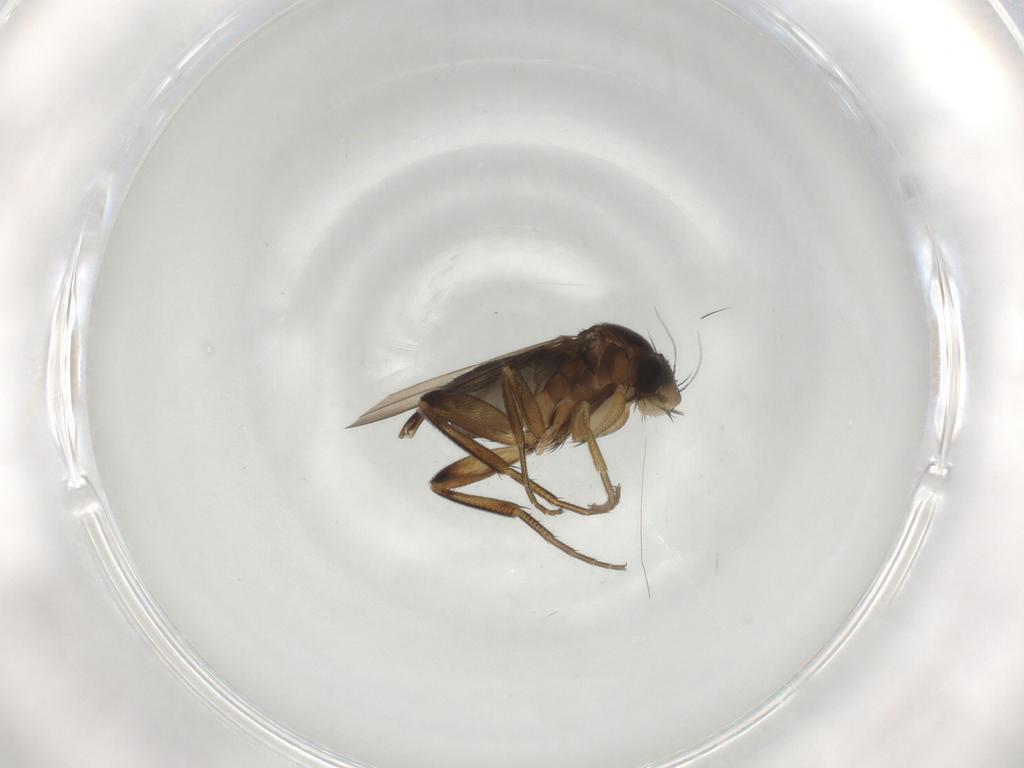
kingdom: Animalia
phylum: Arthropoda
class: Insecta
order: Diptera
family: Phoridae
